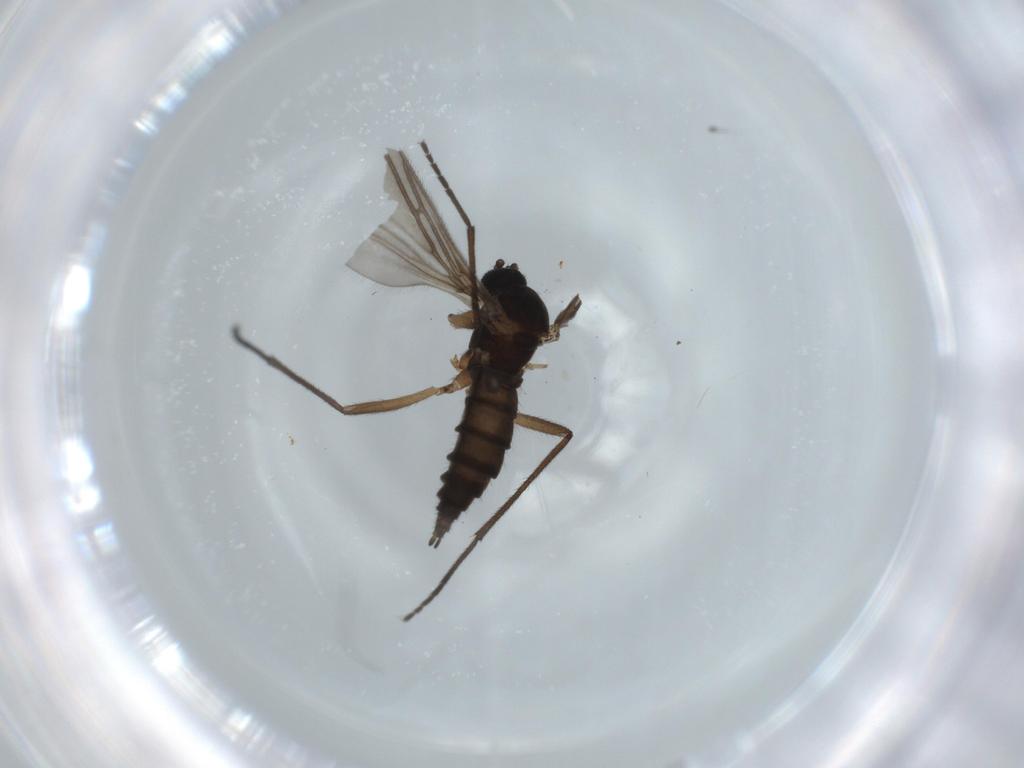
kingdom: Animalia
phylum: Arthropoda
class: Insecta
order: Diptera
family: Sciaridae
